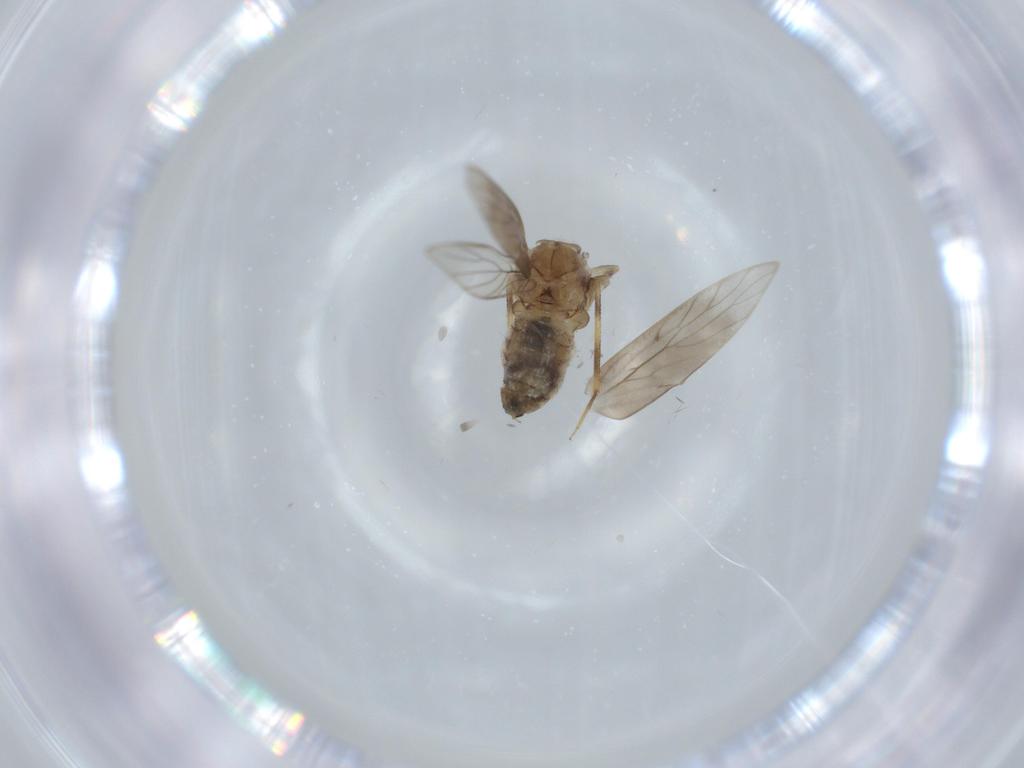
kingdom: Animalia
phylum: Arthropoda
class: Insecta
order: Psocodea
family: Lepidopsocidae
